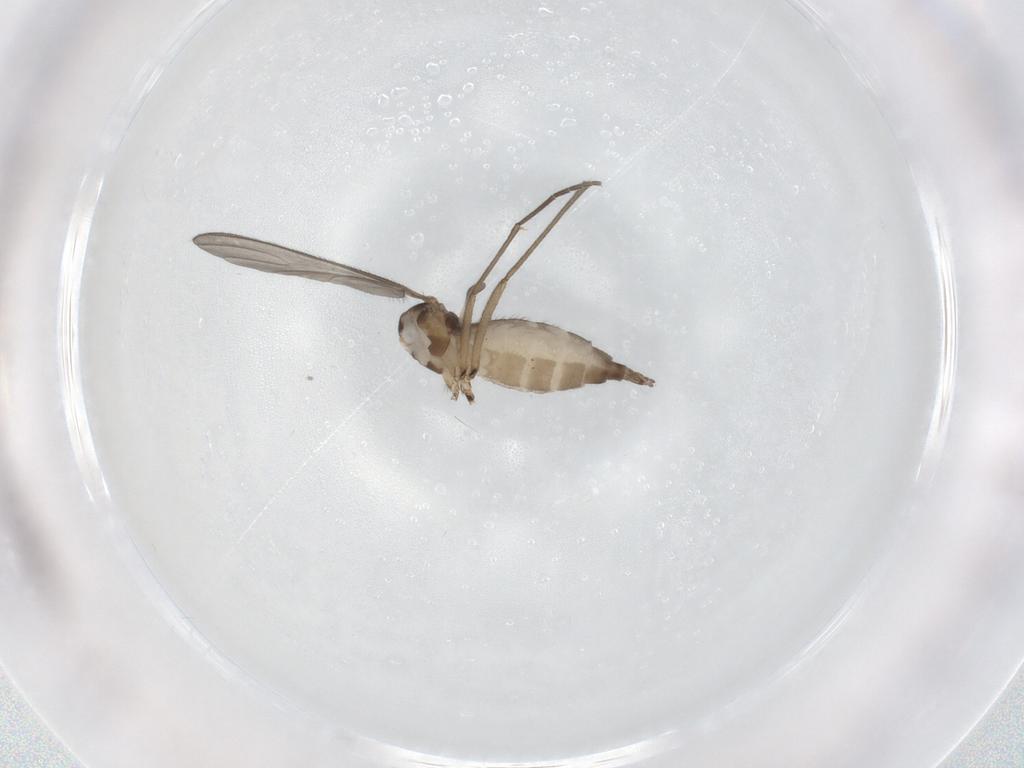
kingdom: Animalia
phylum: Arthropoda
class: Insecta
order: Diptera
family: Sciaridae
